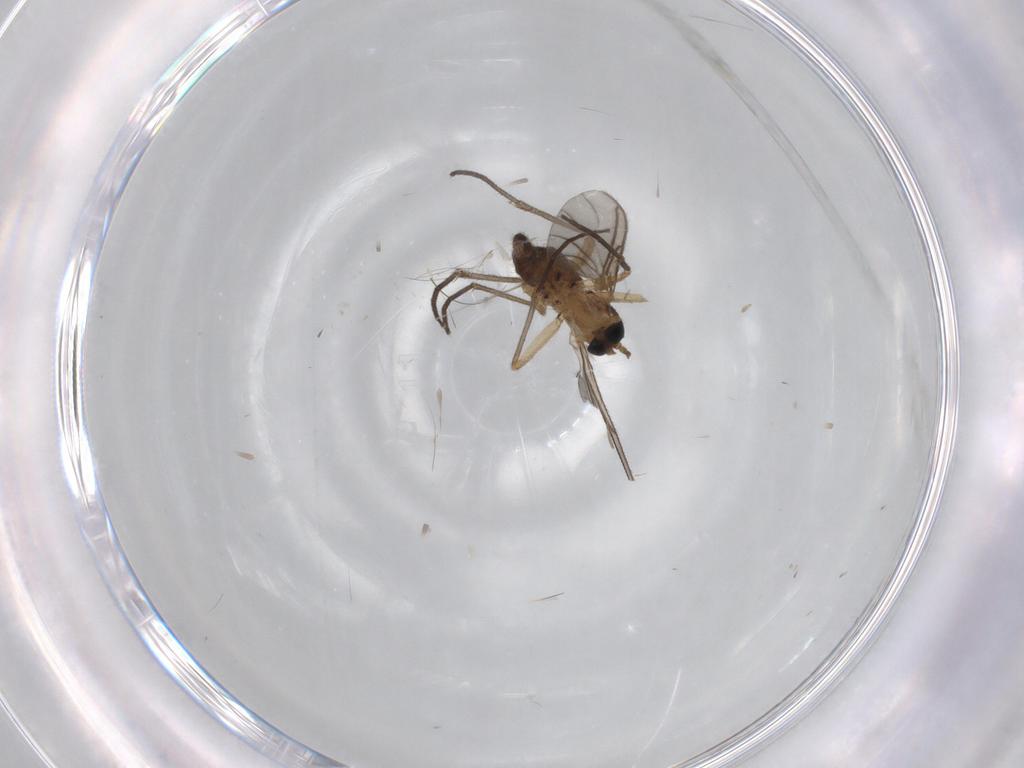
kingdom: Animalia
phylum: Arthropoda
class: Insecta
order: Diptera
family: Sciaridae
